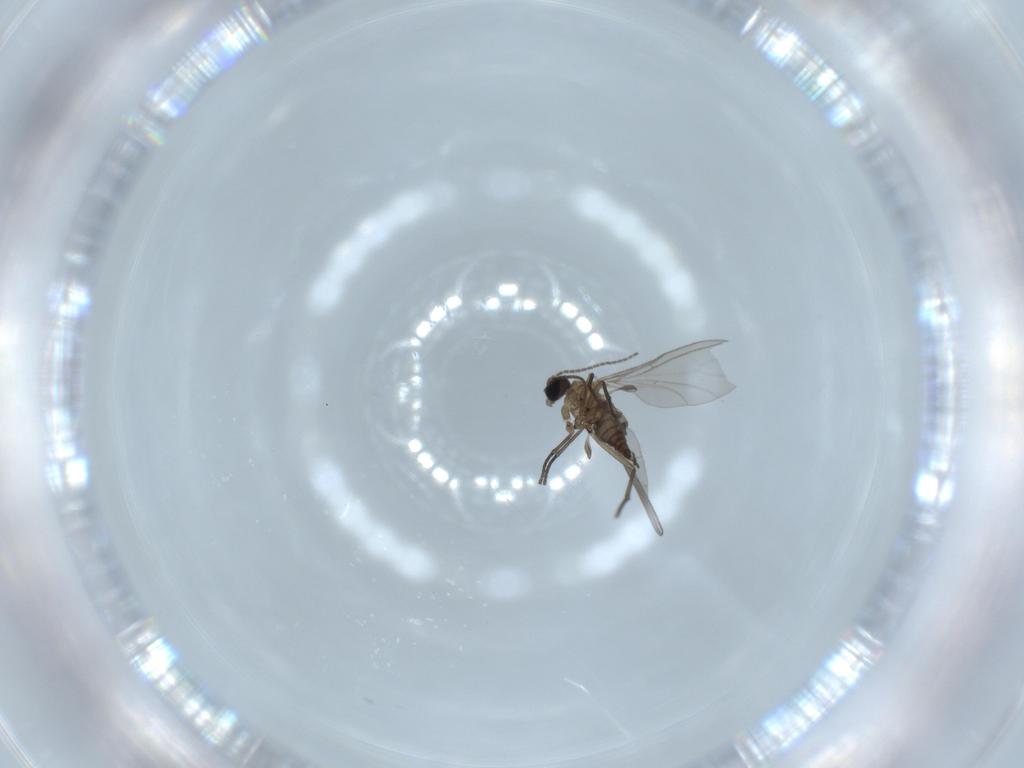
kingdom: Animalia
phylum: Arthropoda
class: Insecta
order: Diptera
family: Sciaridae
